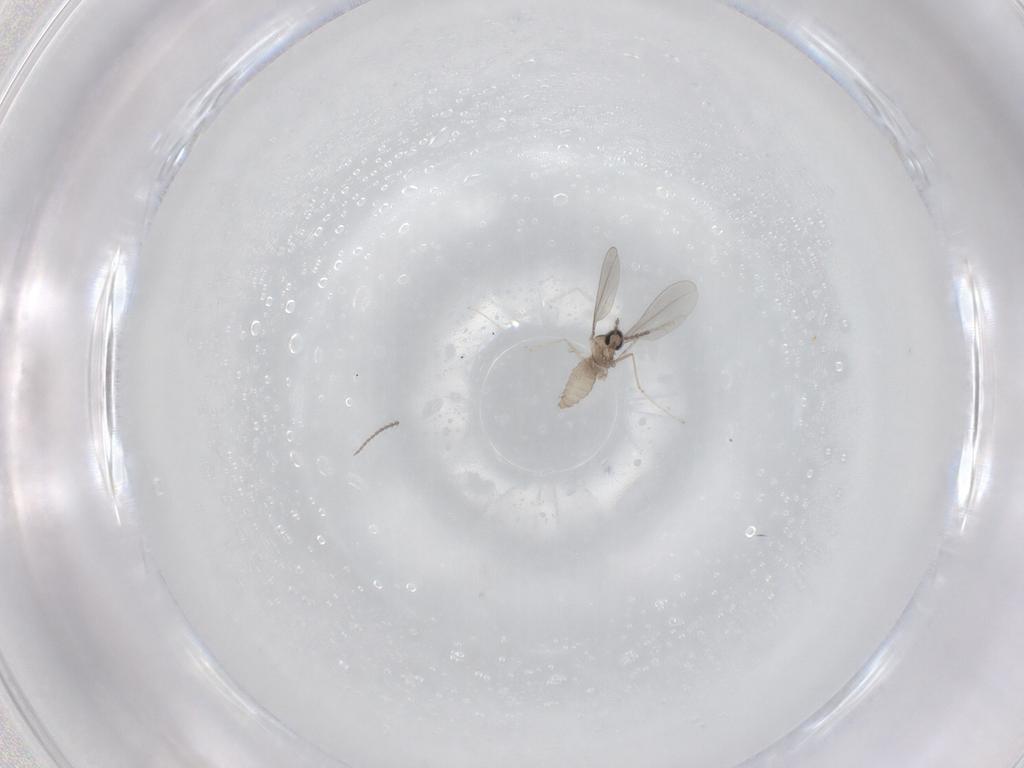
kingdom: Animalia
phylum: Arthropoda
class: Insecta
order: Diptera
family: Cecidomyiidae
